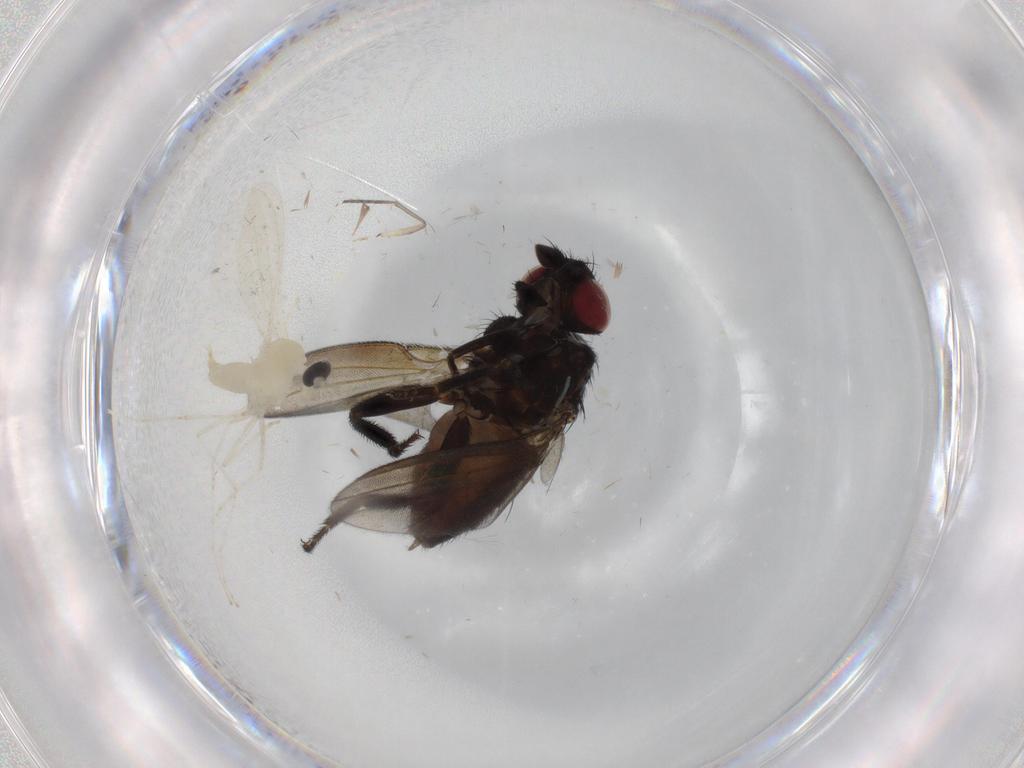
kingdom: Animalia
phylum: Arthropoda
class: Insecta
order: Diptera
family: Milichiidae
